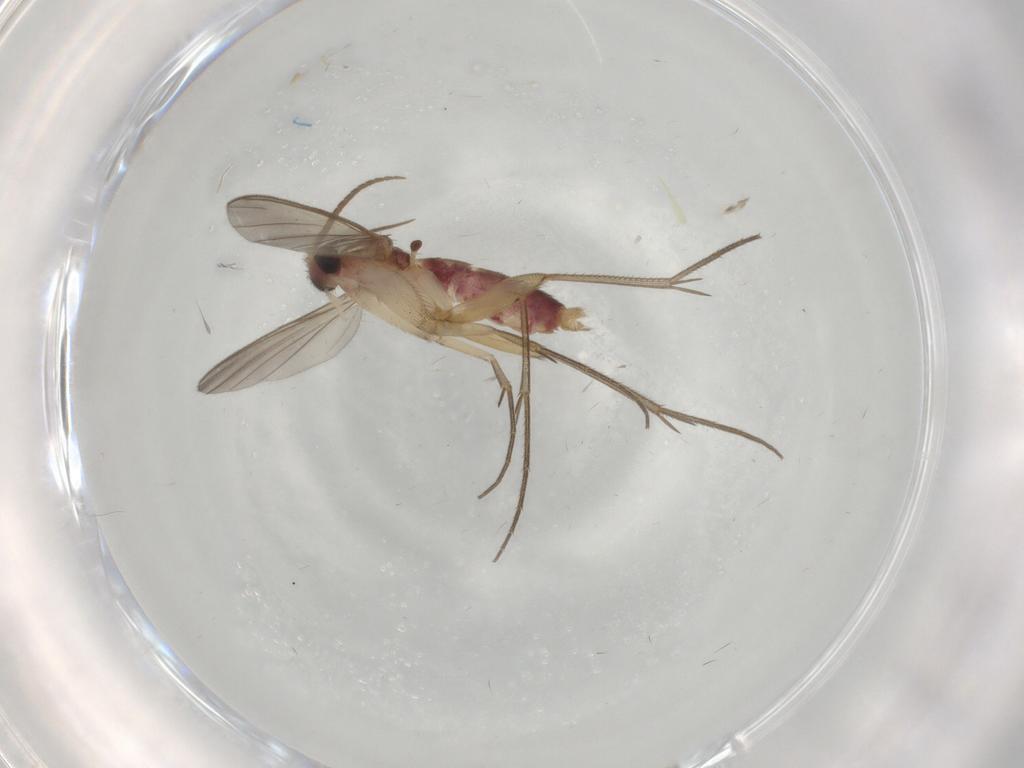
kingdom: Animalia
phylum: Arthropoda
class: Insecta
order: Diptera
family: Mycetophilidae
